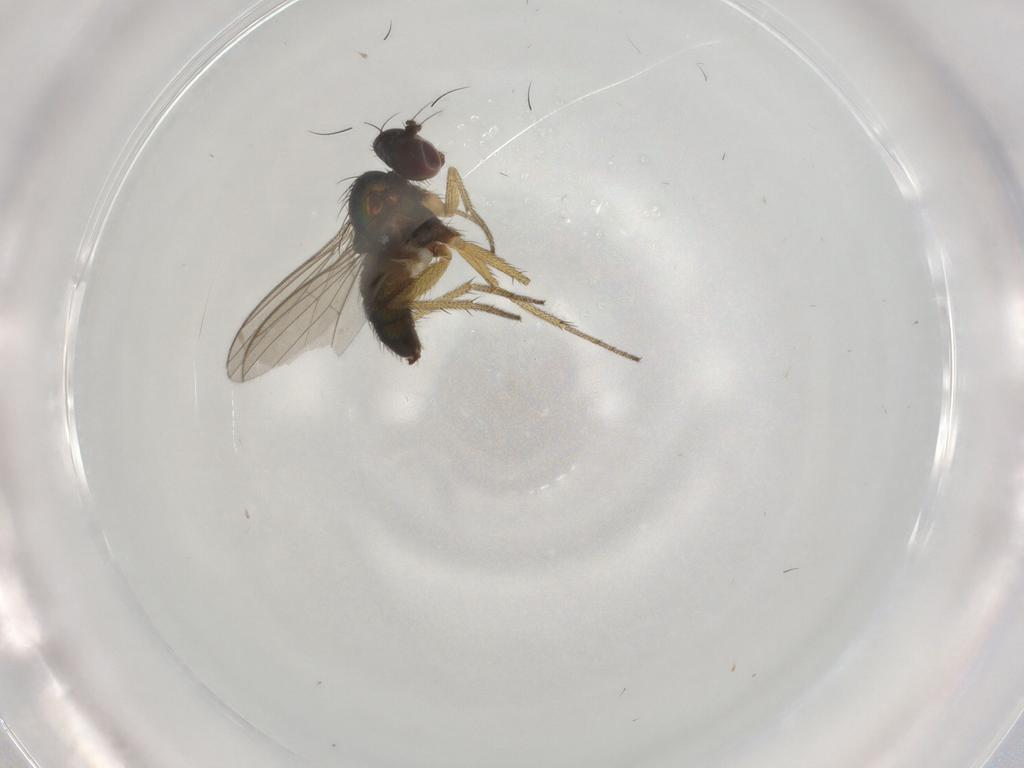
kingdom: Animalia
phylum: Arthropoda
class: Insecta
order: Diptera
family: Dolichopodidae
